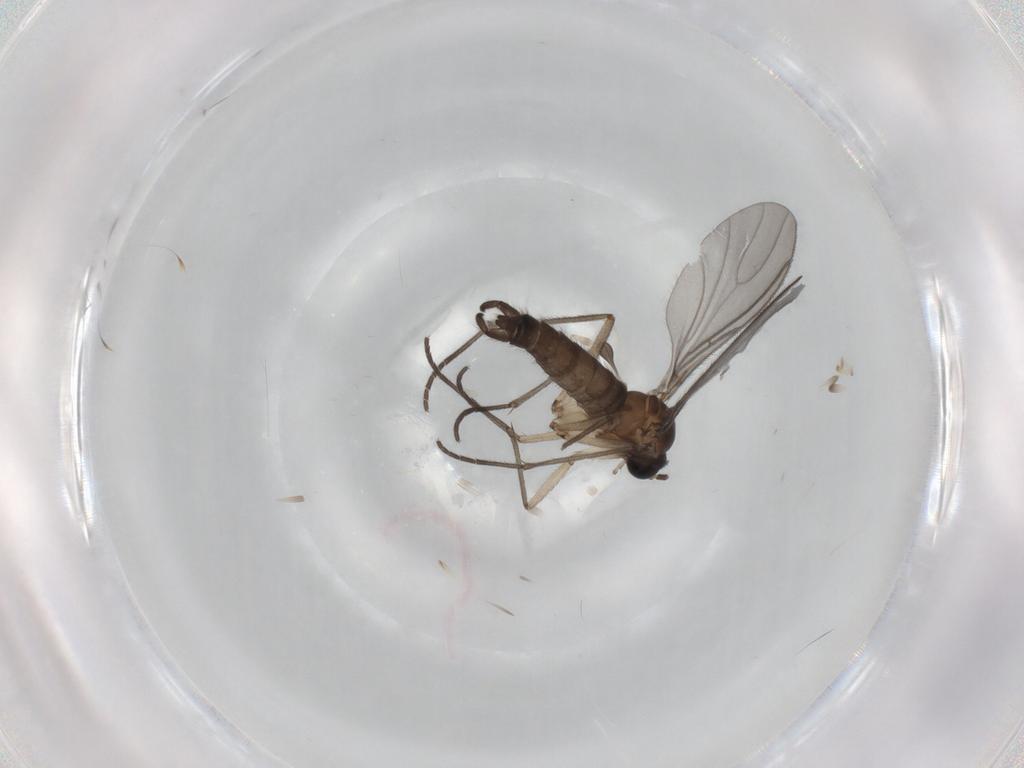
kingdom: Animalia
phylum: Arthropoda
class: Insecta
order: Diptera
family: Sciaridae
